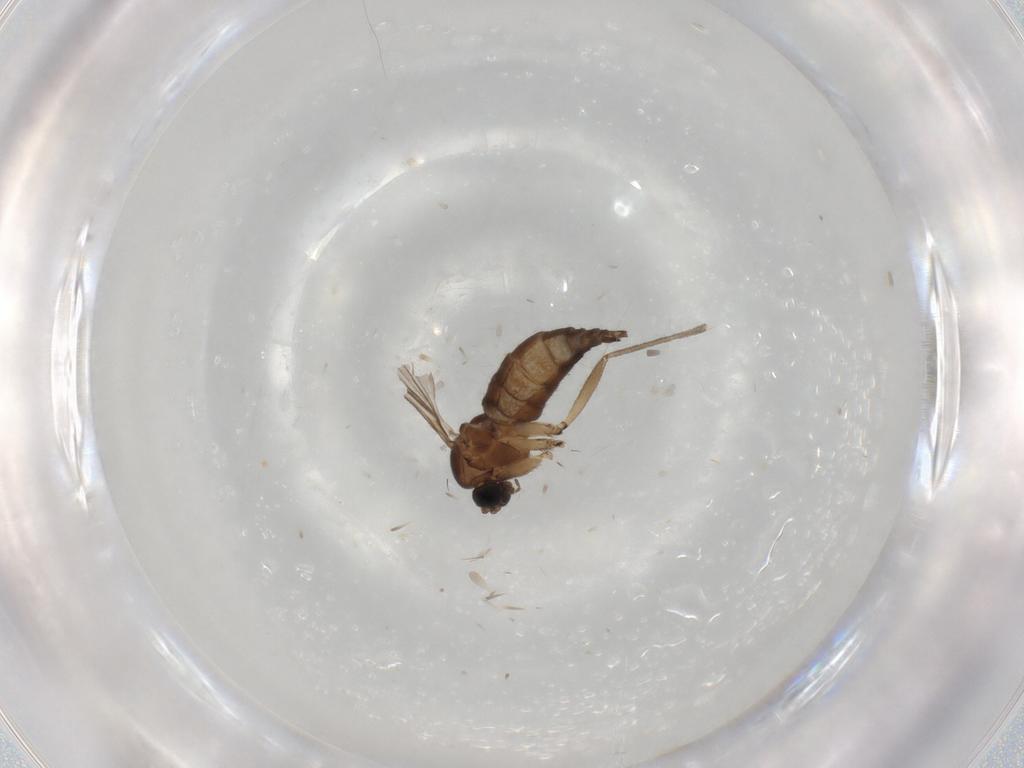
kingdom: Animalia
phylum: Arthropoda
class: Insecta
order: Diptera
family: Sciaridae
